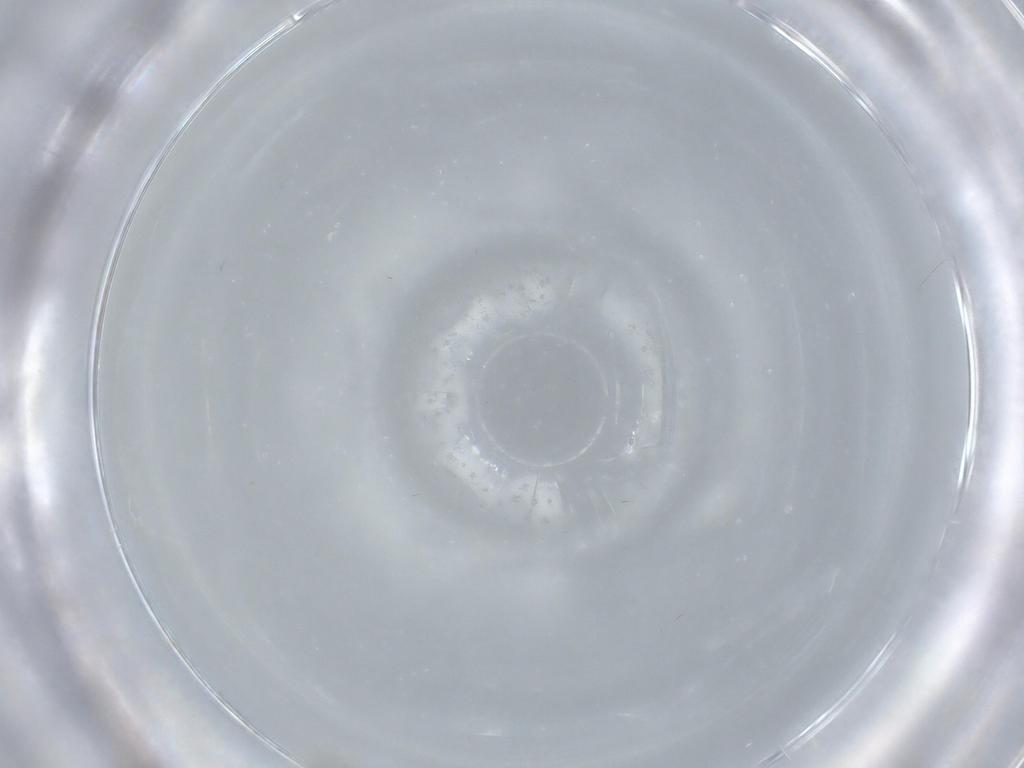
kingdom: Animalia
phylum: Arthropoda
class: Insecta
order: Diptera
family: Cecidomyiidae
